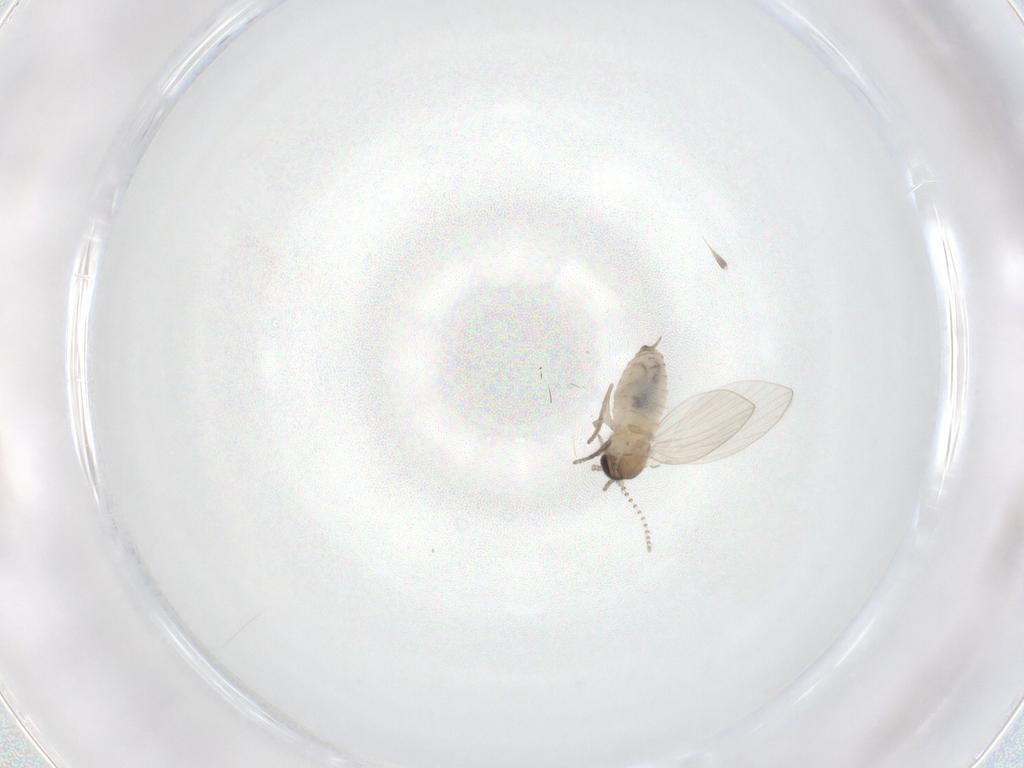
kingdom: Animalia
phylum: Arthropoda
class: Insecta
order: Diptera
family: Psychodidae
